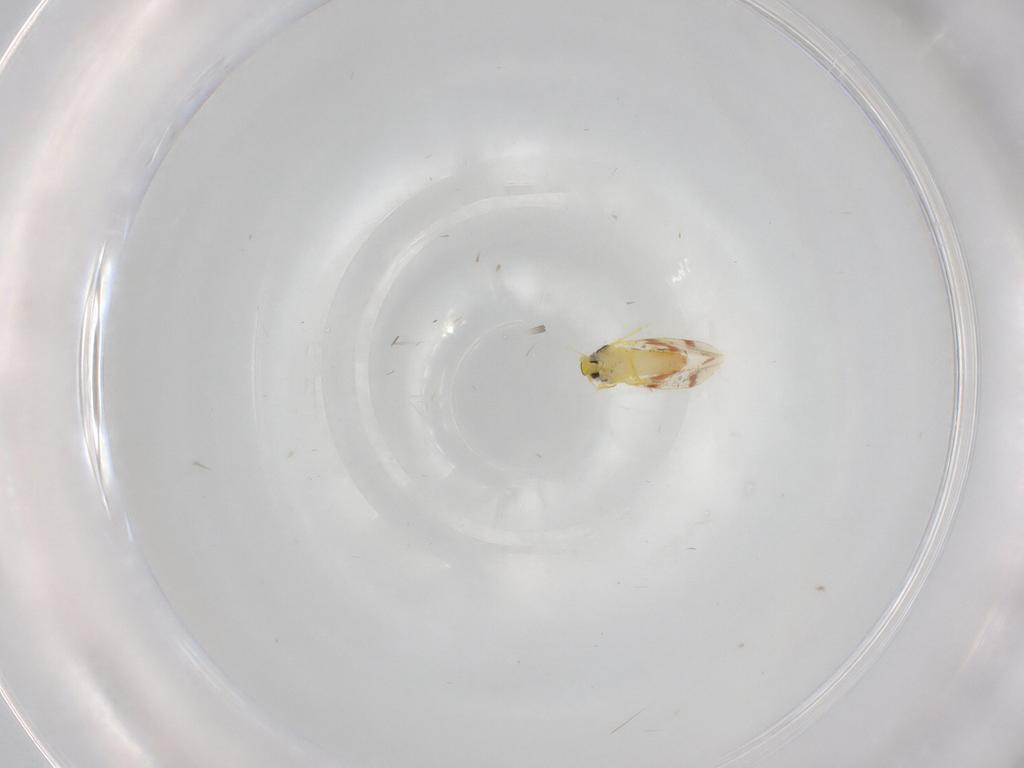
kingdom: Animalia
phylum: Arthropoda
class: Insecta
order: Hemiptera
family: Aleyrodidae
